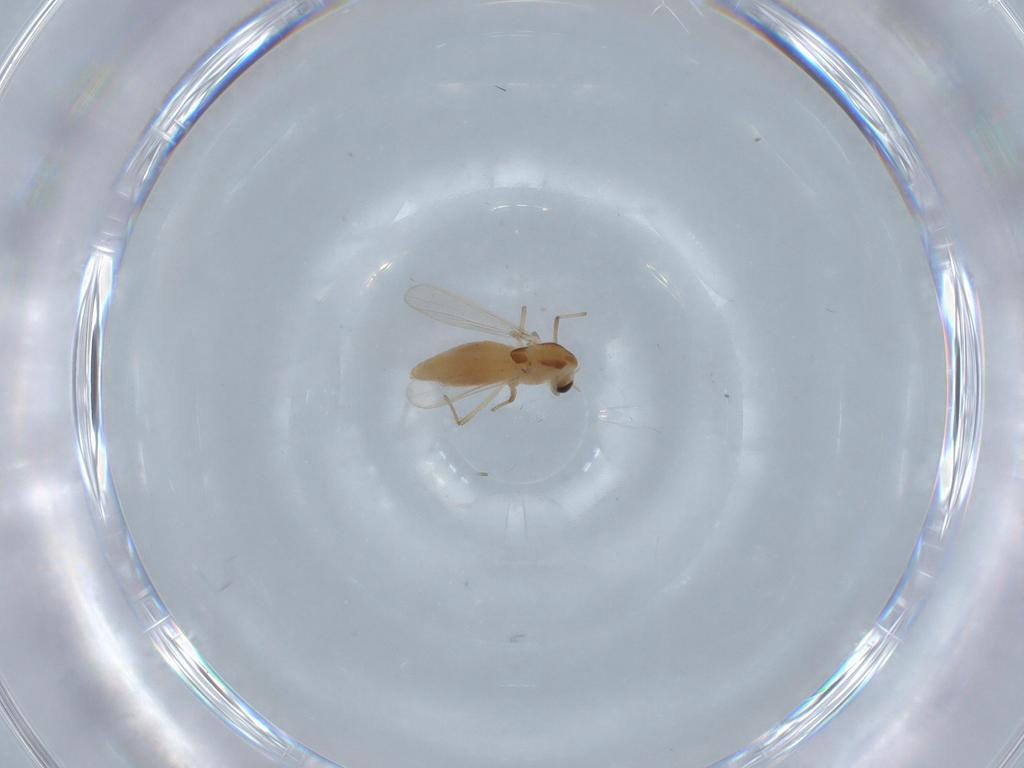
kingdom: Animalia
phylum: Arthropoda
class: Insecta
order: Diptera
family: Chironomidae
